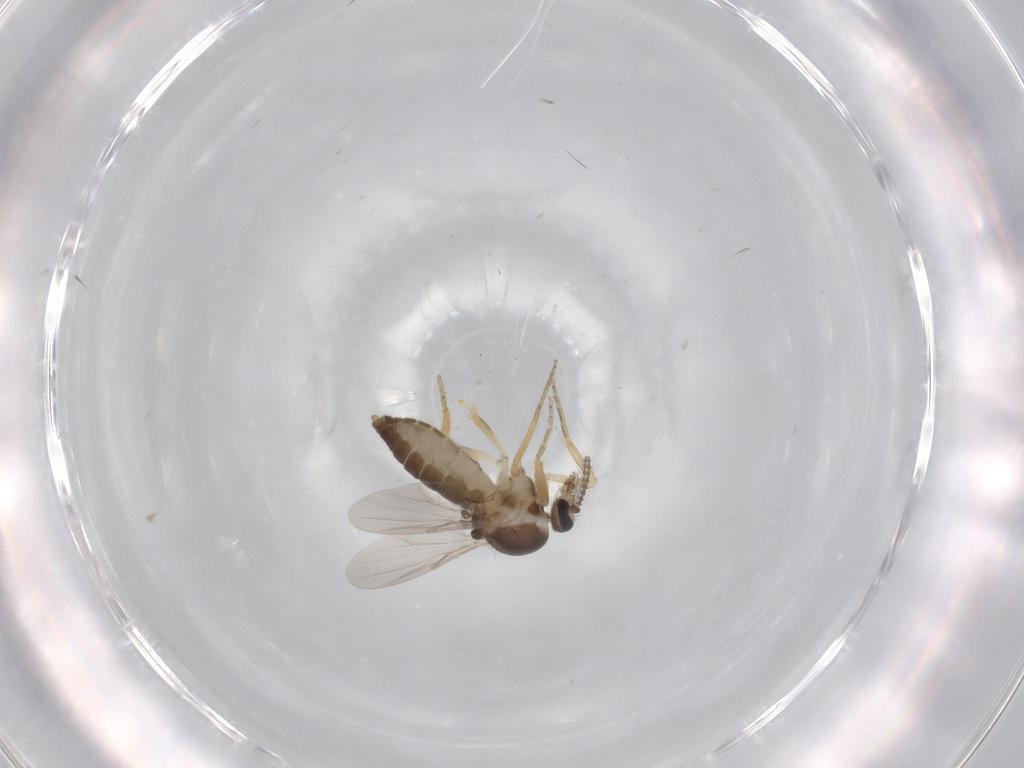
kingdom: Animalia
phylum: Arthropoda
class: Insecta
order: Diptera
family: Ceratopogonidae
